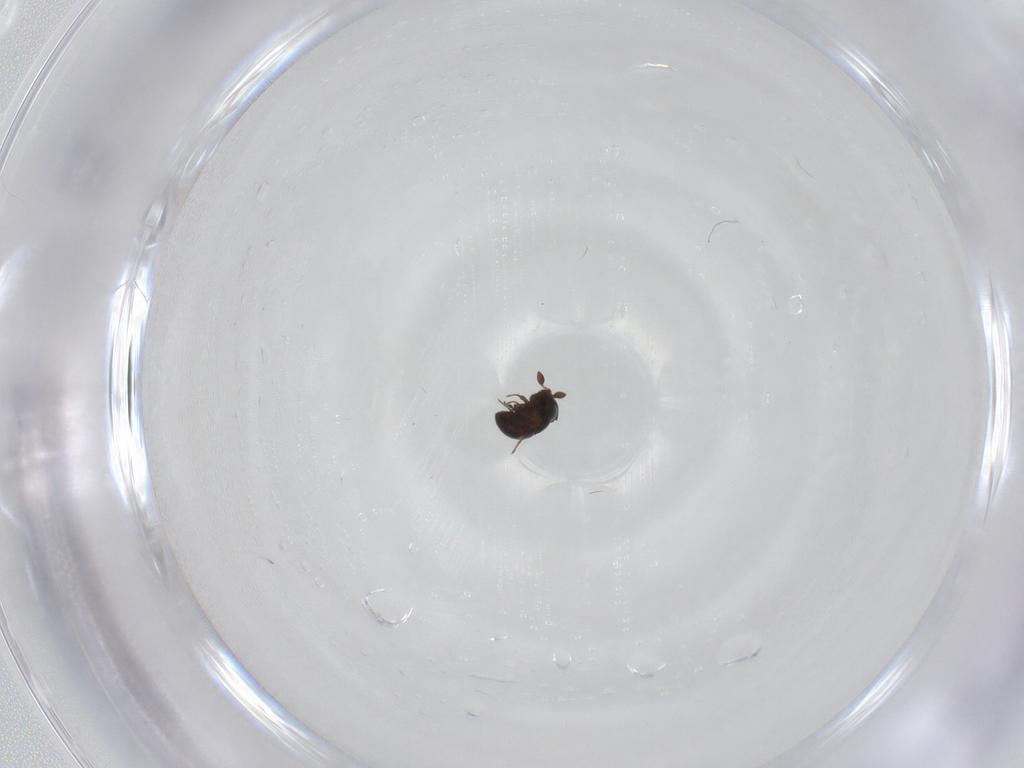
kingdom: Animalia
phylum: Arthropoda
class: Insecta
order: Hymenoptera
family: Scelionidae
